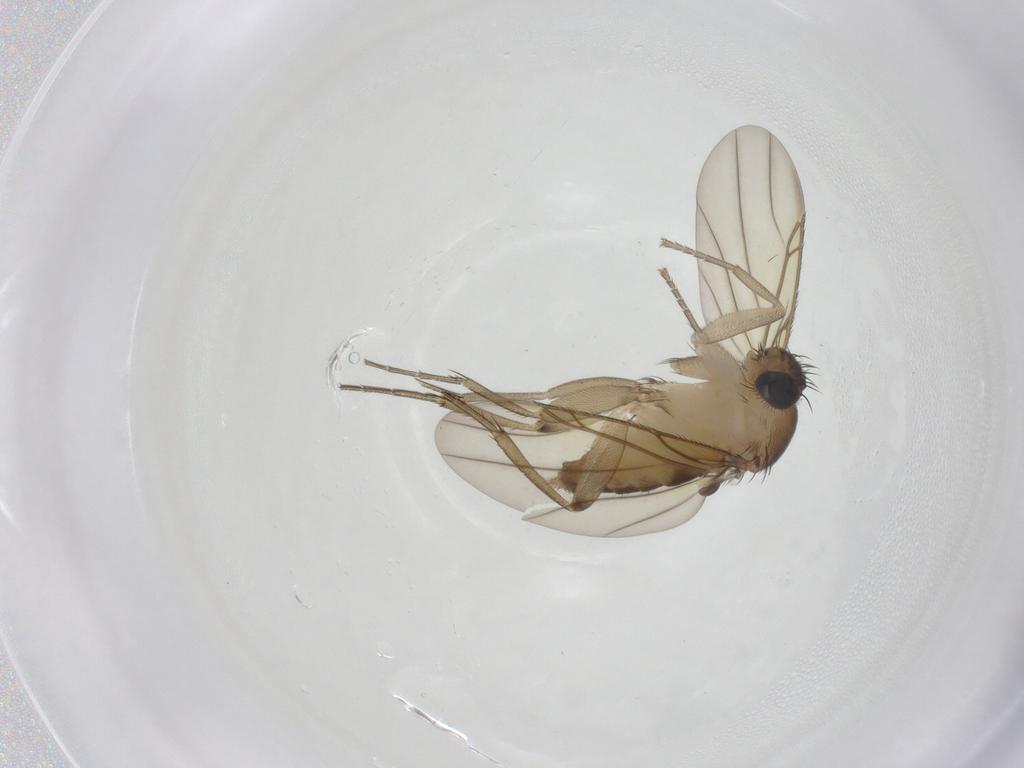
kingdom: Animalia
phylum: Arthropoda
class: Insecta
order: Diptera
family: Phoridae
